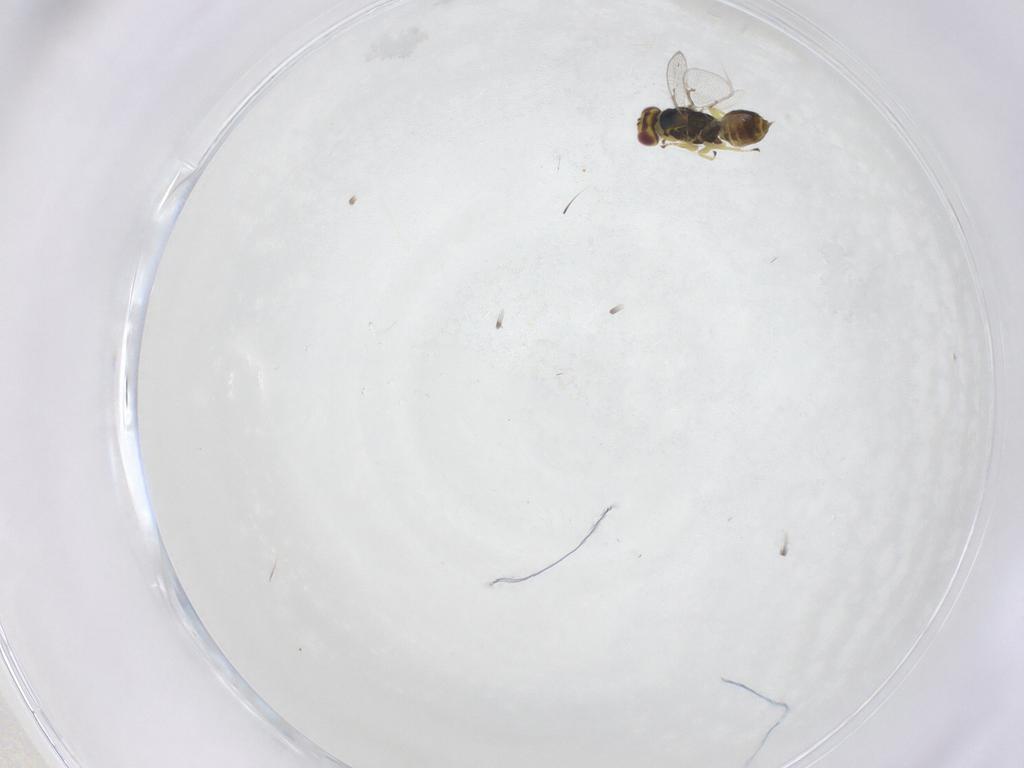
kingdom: Animalia
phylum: Arthropoda
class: Insecta
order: Hymenoptera
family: Eulophidae
